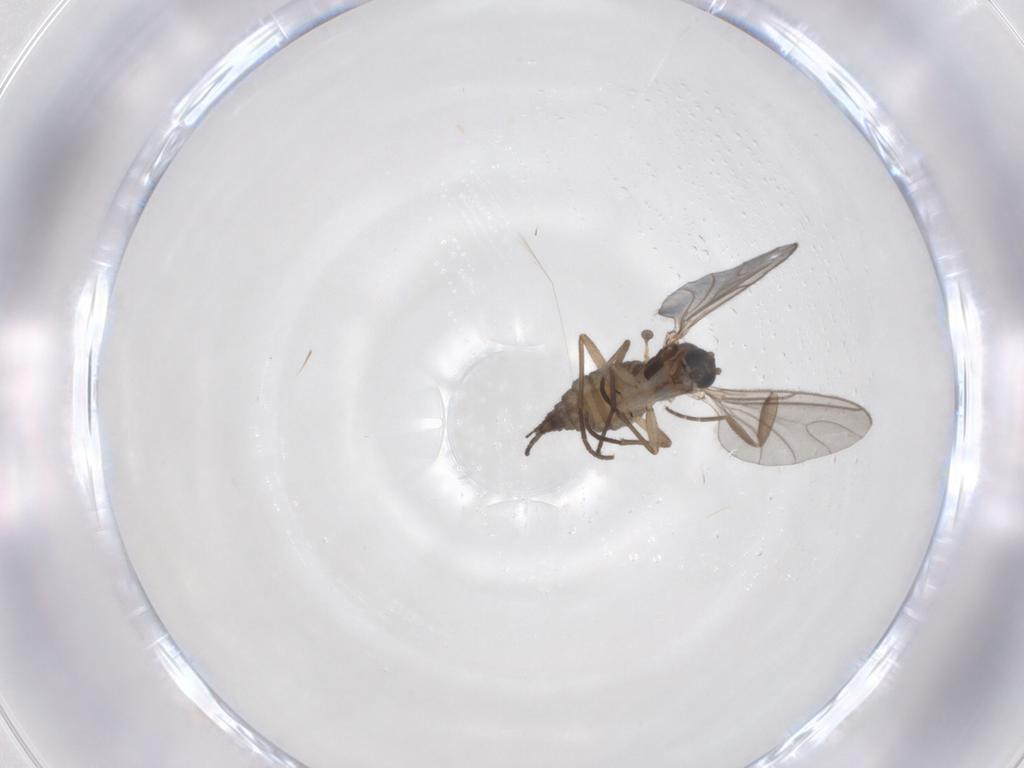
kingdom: Animalia
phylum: Arthropoda
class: Insecta
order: Diptera
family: Sciaridae
